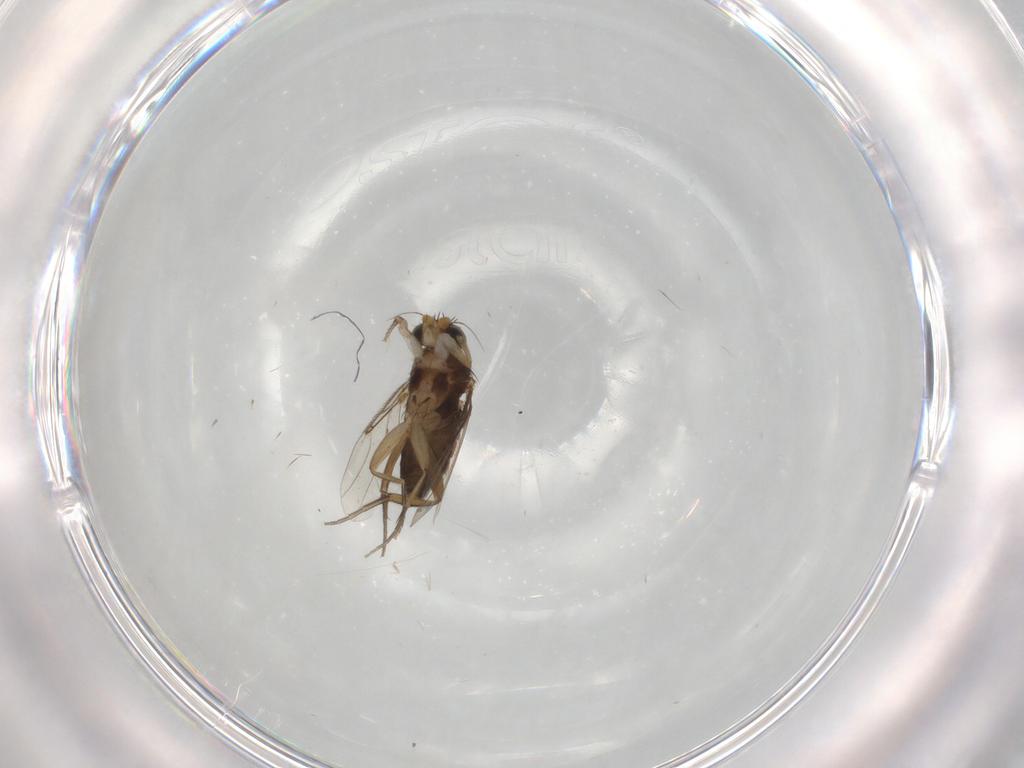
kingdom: Animalia
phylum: Arthropoda
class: Insecta
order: Diptera
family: Phoridae
